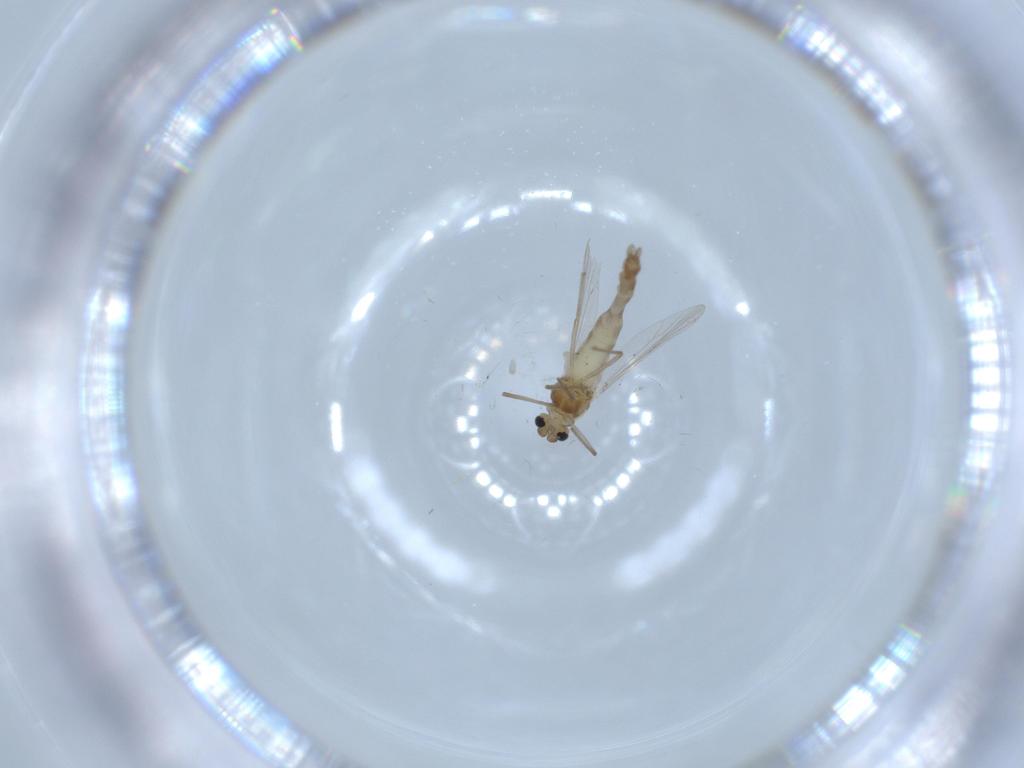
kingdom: Animalia
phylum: Arthropoda
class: Insecta
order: Diptera
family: Chironomidae
